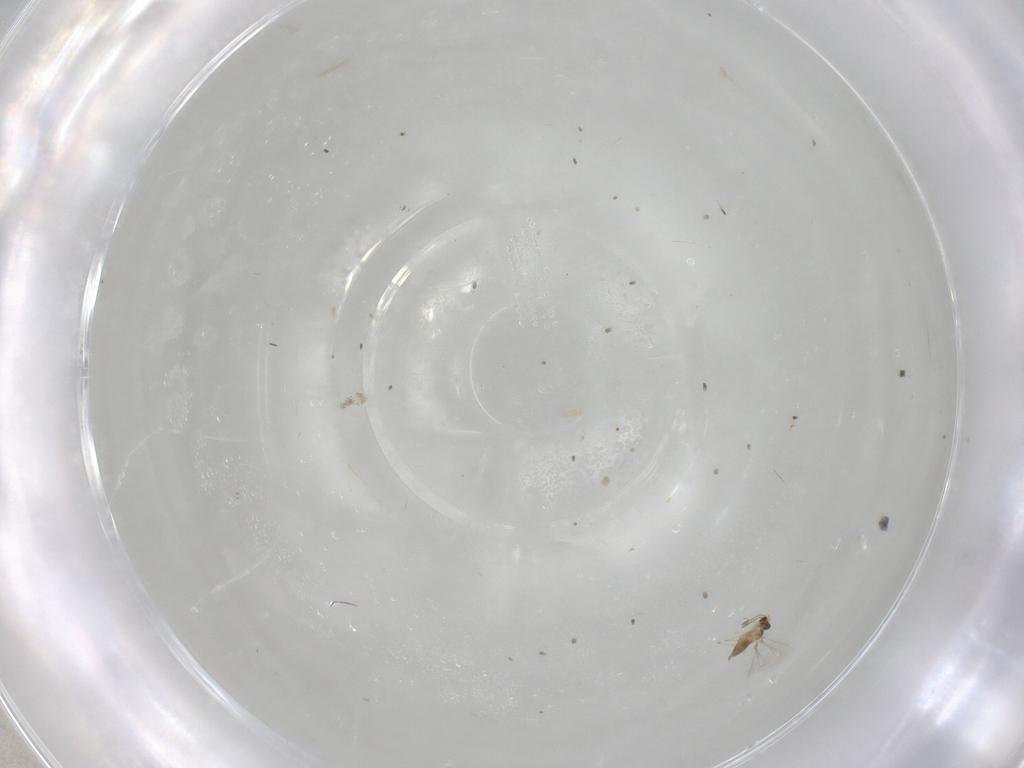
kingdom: Animalia
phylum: Arthropoda
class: Insecta
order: Hymenoptera
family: Mymaridae
